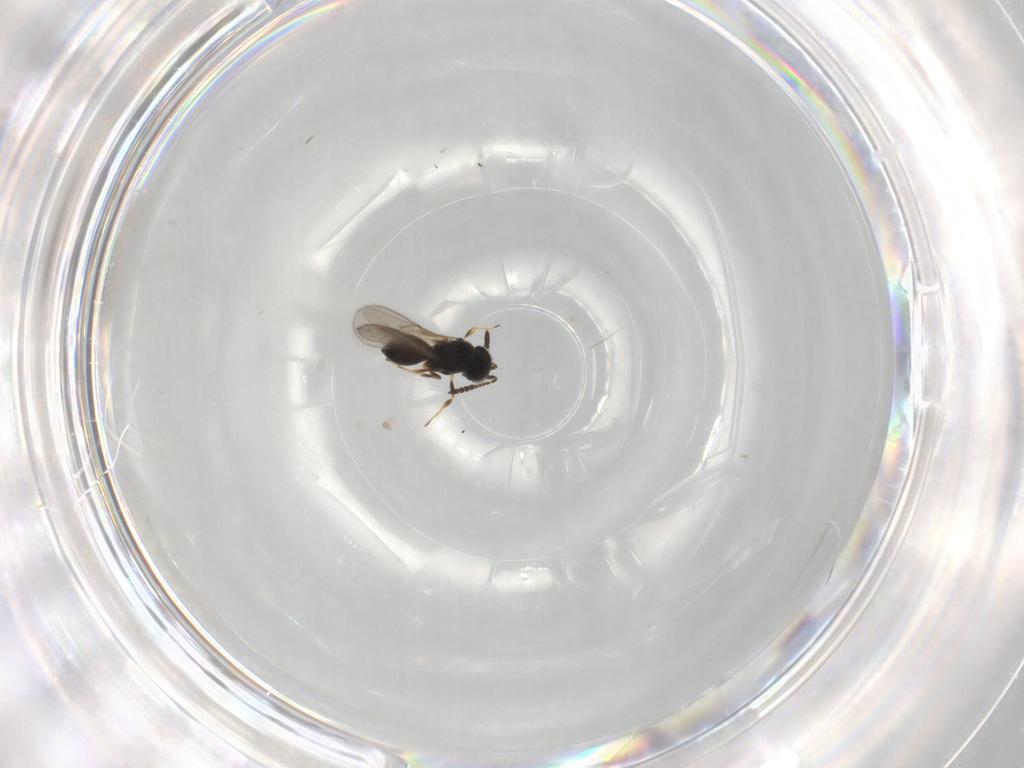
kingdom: Animalia
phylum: Arthropoda
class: Insecta
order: Hymenoptera
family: Scelionidae
